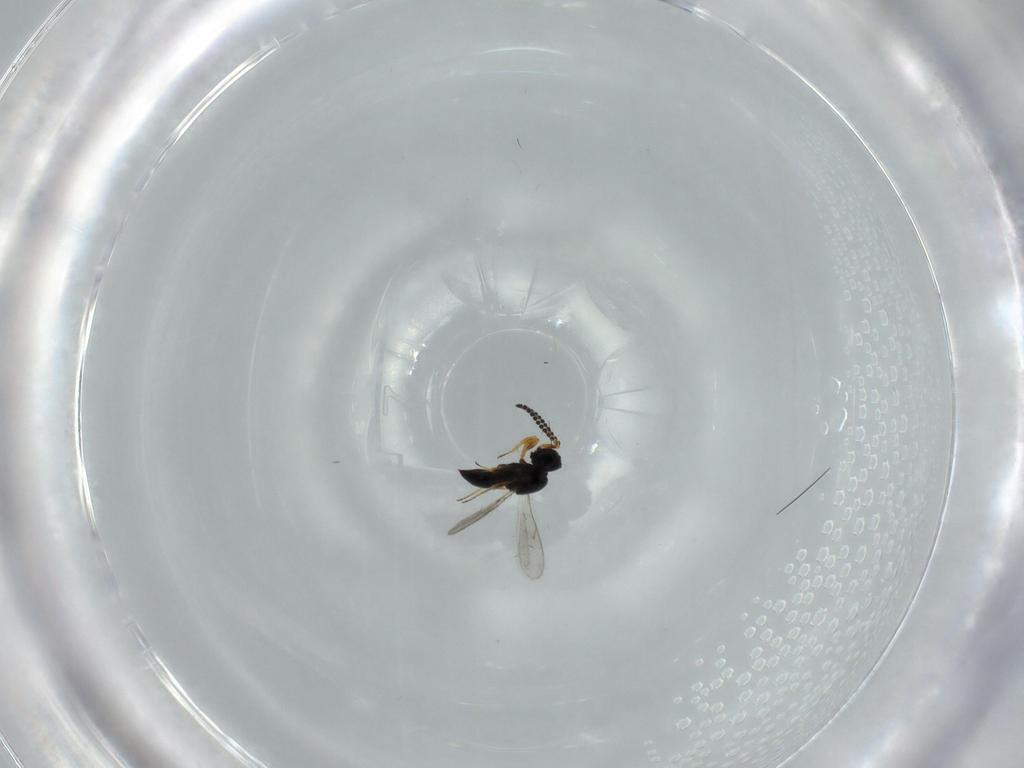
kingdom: Animalia
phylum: Arthropoda
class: Insecta
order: Hymenoptera
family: Scelionidae
